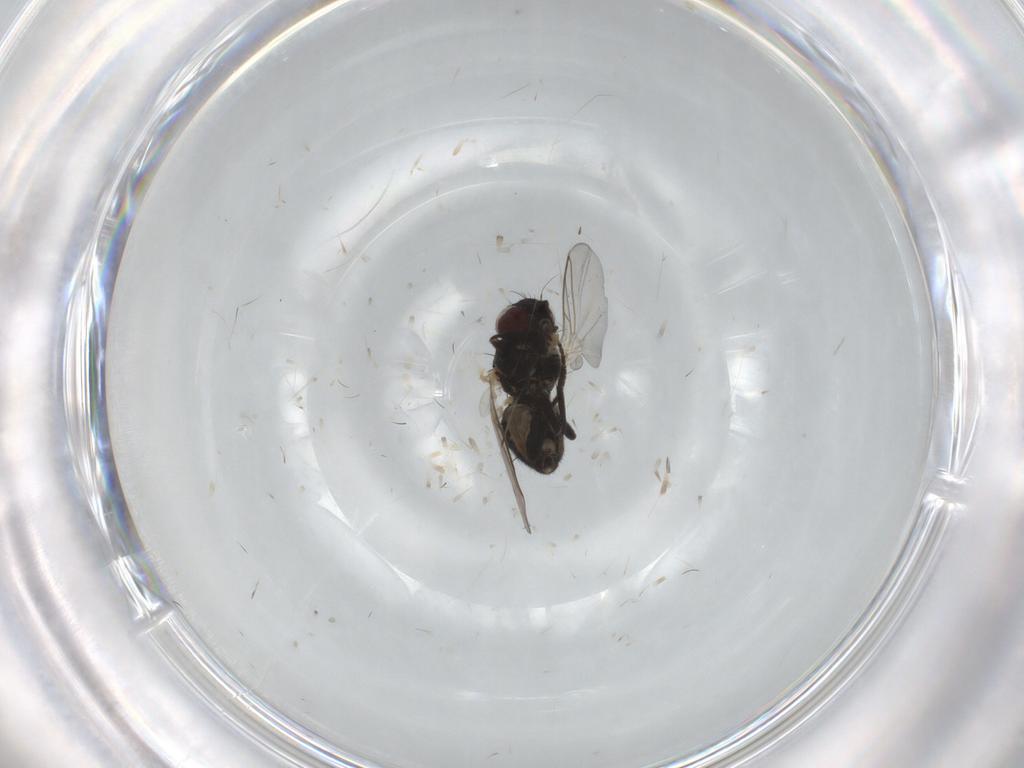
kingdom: Animalia
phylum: Arthropoda
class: Insecta
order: Diptera
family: Agromyzidae
